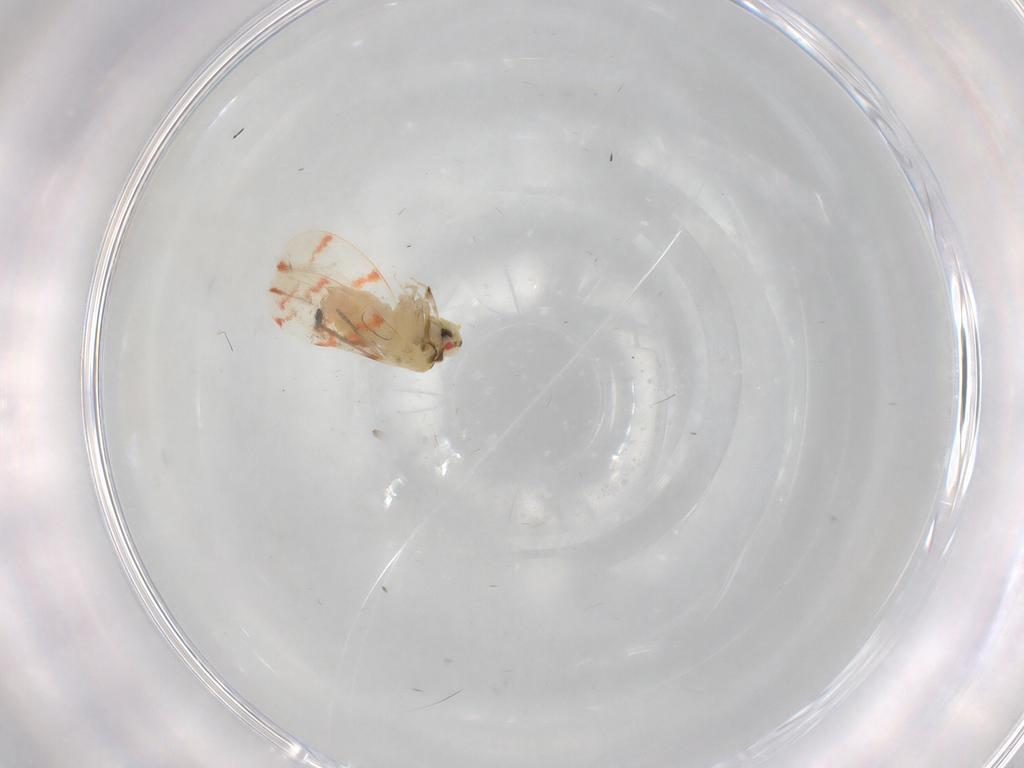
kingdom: Animalia
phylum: Arthropoda
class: Insecta
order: Hemiptera
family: Aleyrodidae
